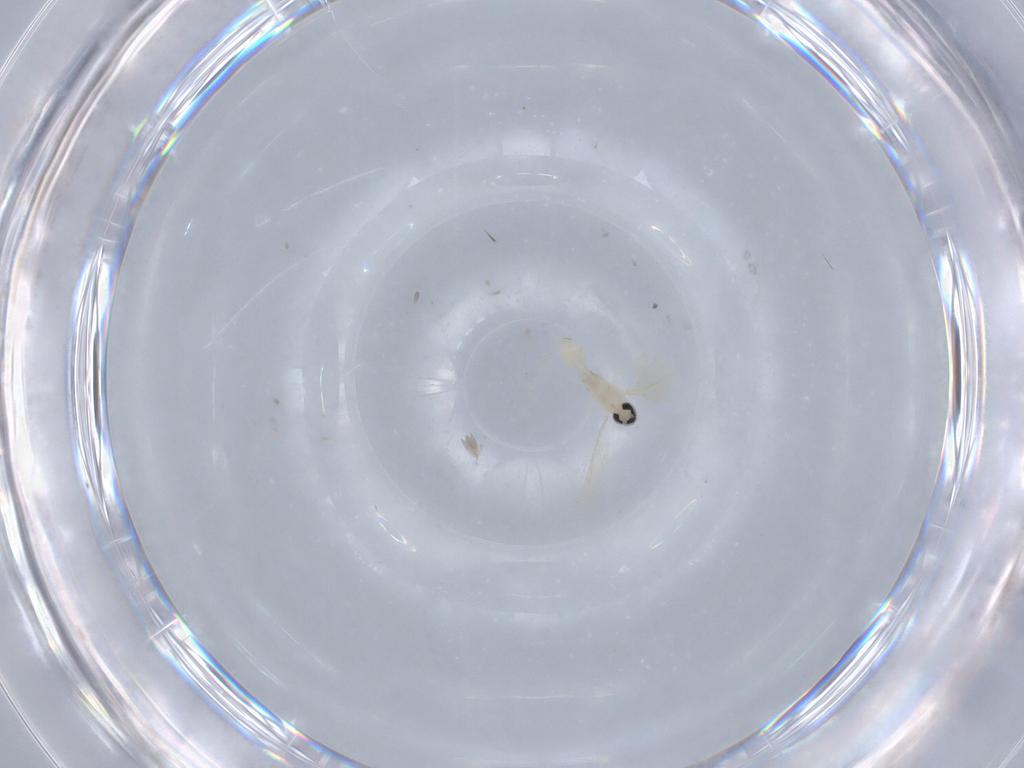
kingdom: Animalia
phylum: Arthropoda
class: Insecta
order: Diptera
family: Cecidomyiidae
